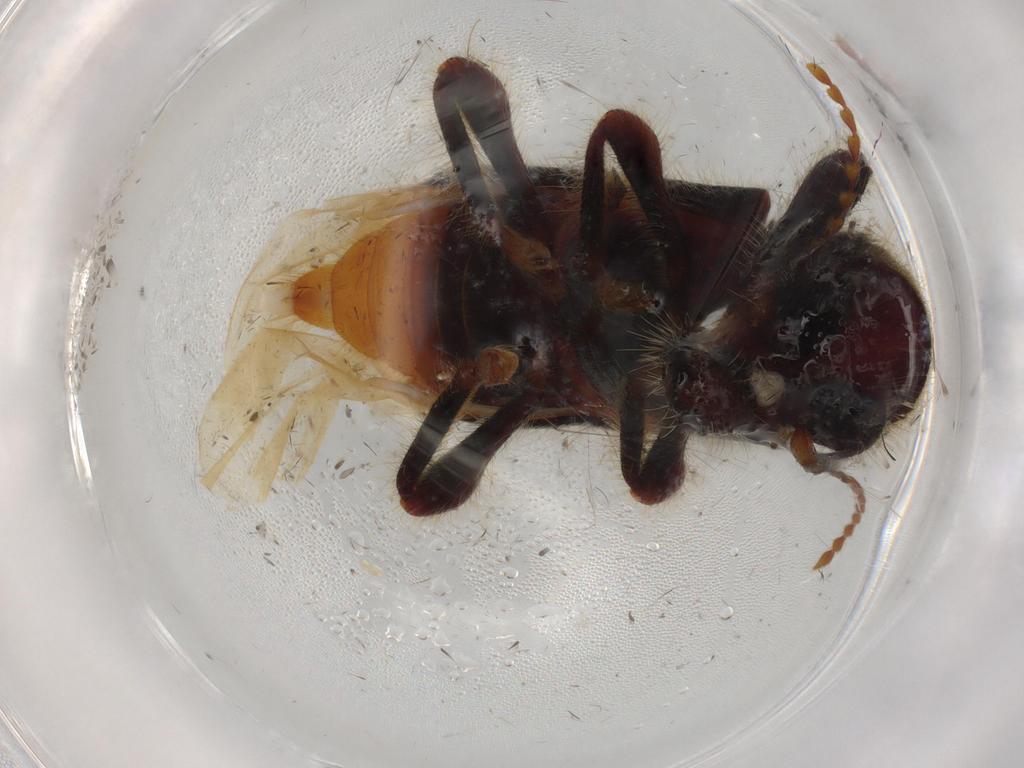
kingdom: Animalia
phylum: Arthropoda
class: Insecta
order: Coleoptera
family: Cleridae
